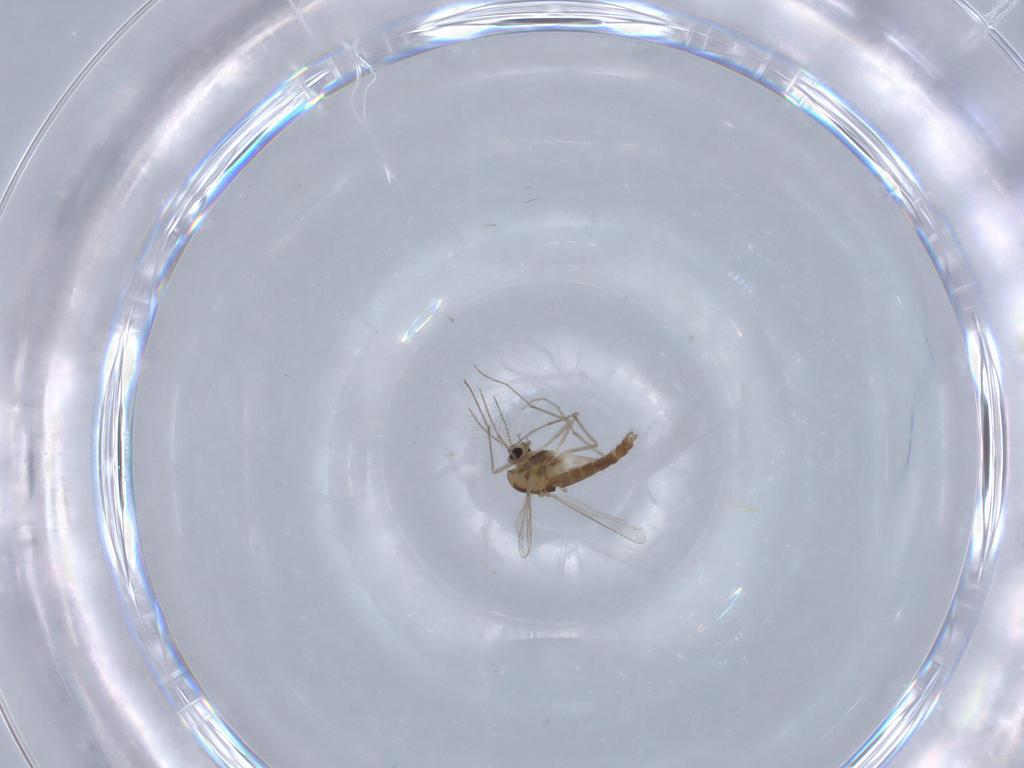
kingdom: Animalia
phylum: Arthropoda
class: Insecta
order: Diptera
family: Chironomidae
